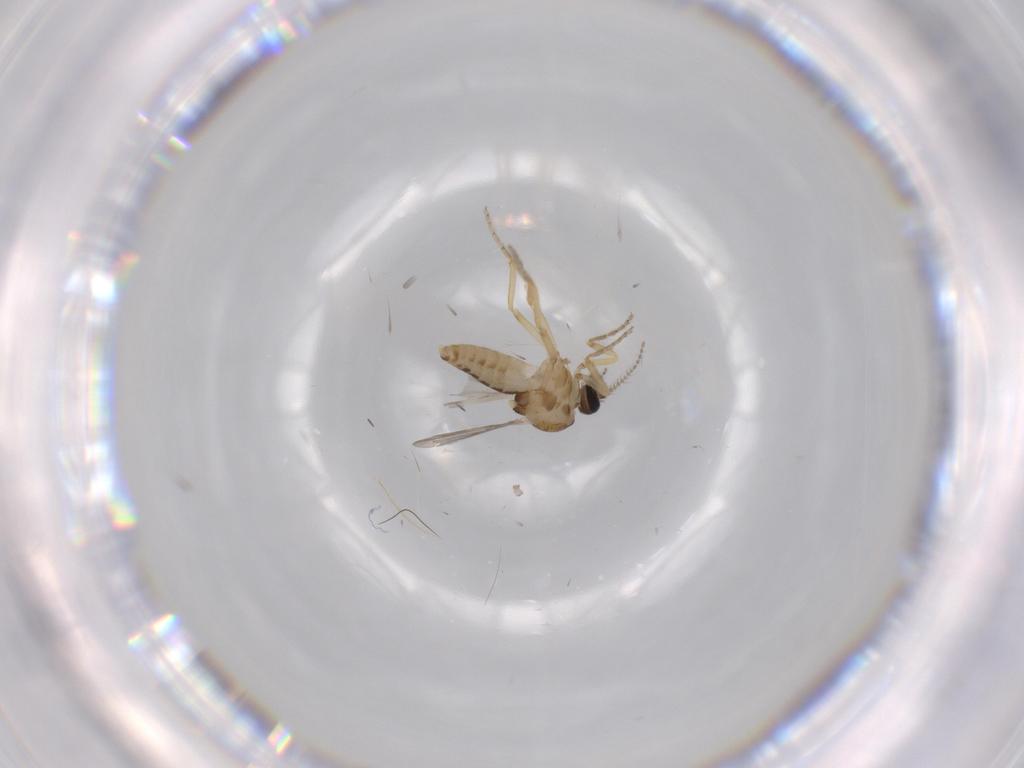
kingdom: Animalia
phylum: Arthropoda
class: Insecta
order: Diptera
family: Ceratopogonidae
